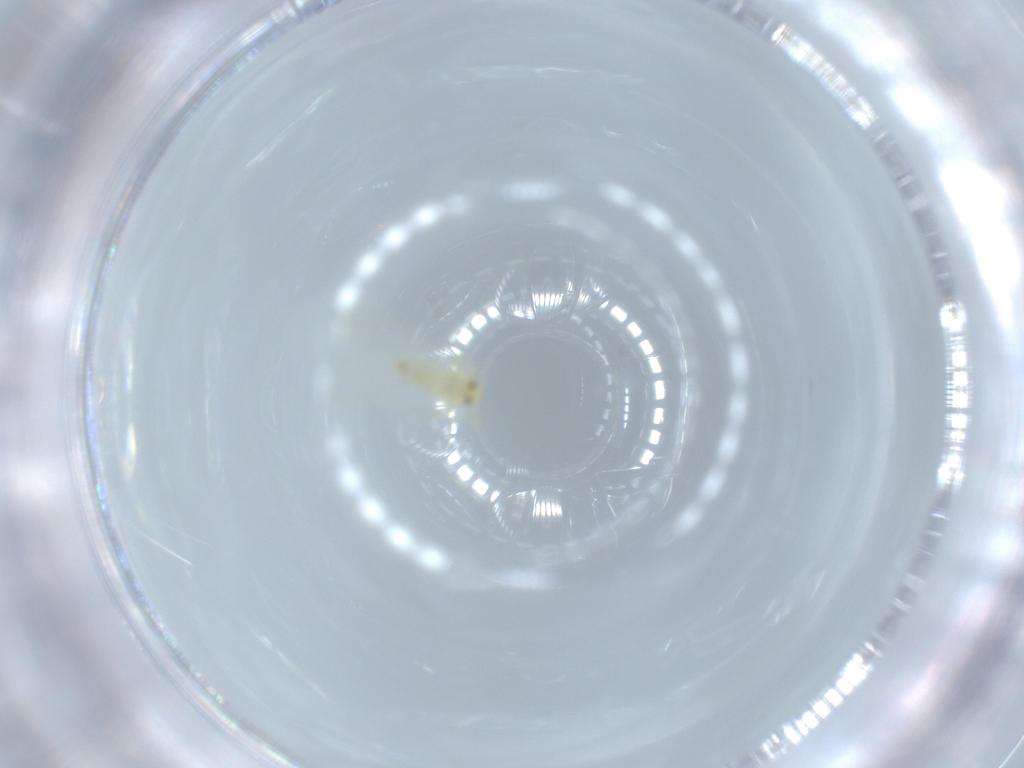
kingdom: Animalia
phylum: Arthropoda
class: Insecta
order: Hemiptera
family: Aleyrodidae
